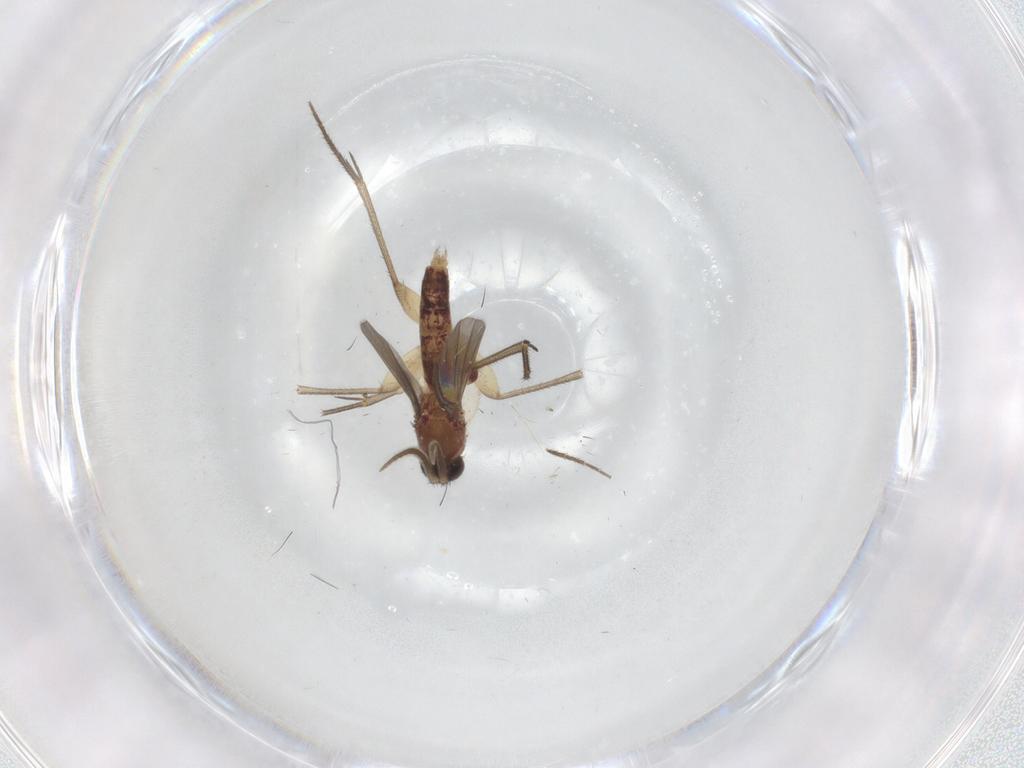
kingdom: Animalia
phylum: Arthropoda
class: Insecta
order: Diptera
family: Mycetophilidae
